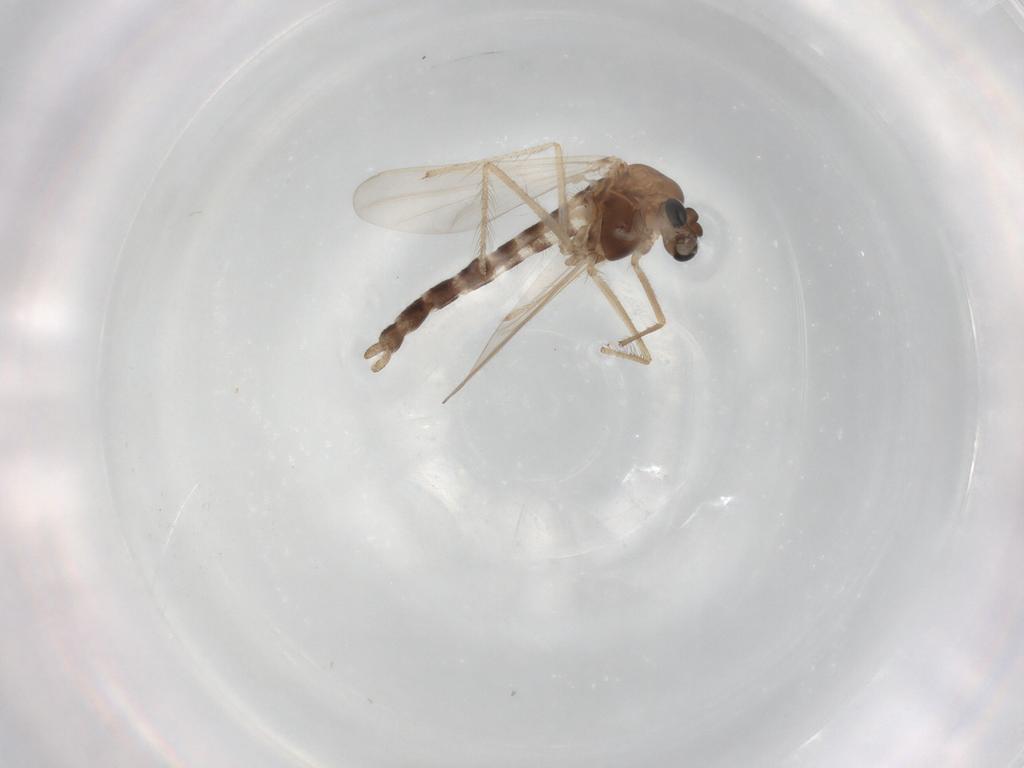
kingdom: Animalia
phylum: Arthropoda
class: Insecta
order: Diptera
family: Chironomidae
